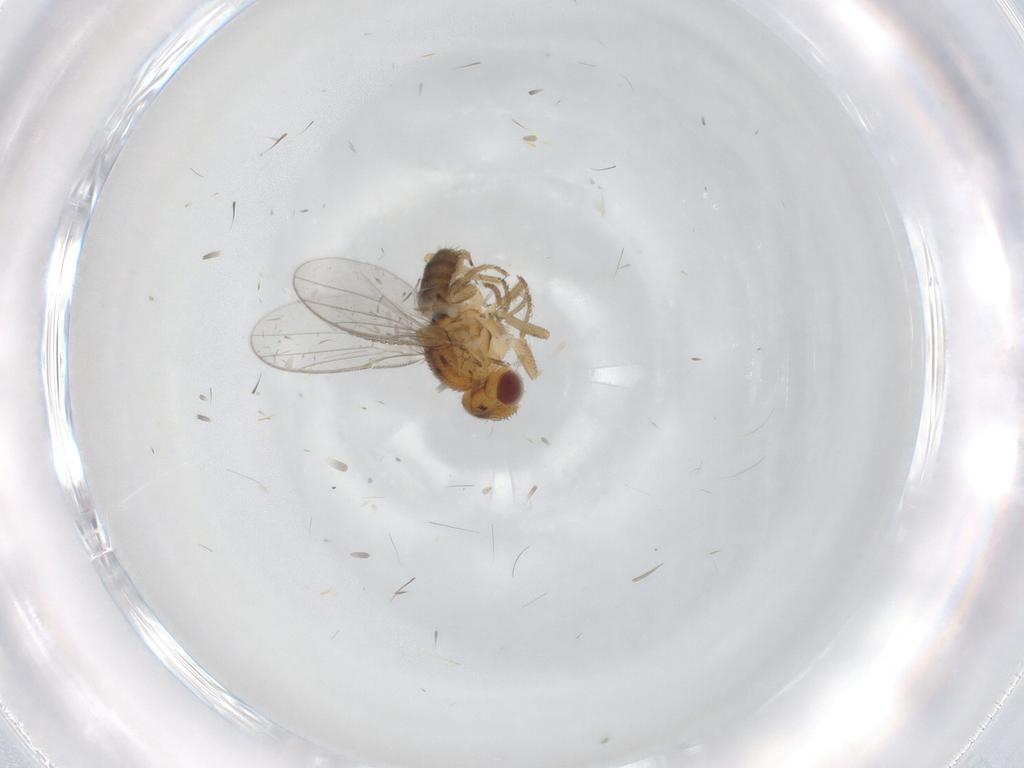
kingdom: Animalia
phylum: Arthropoda
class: Insecta
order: Diptera
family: Chloropidae
